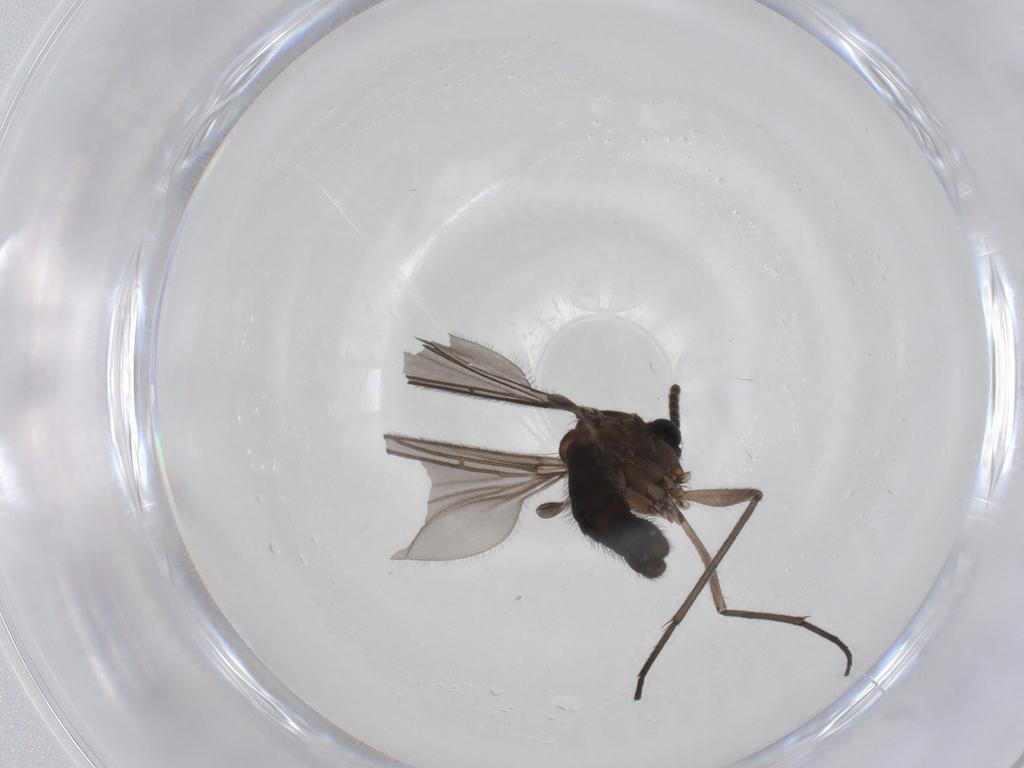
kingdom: Animalia
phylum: Arthropoda
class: Insecta
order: Diptera
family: Sciaridae
